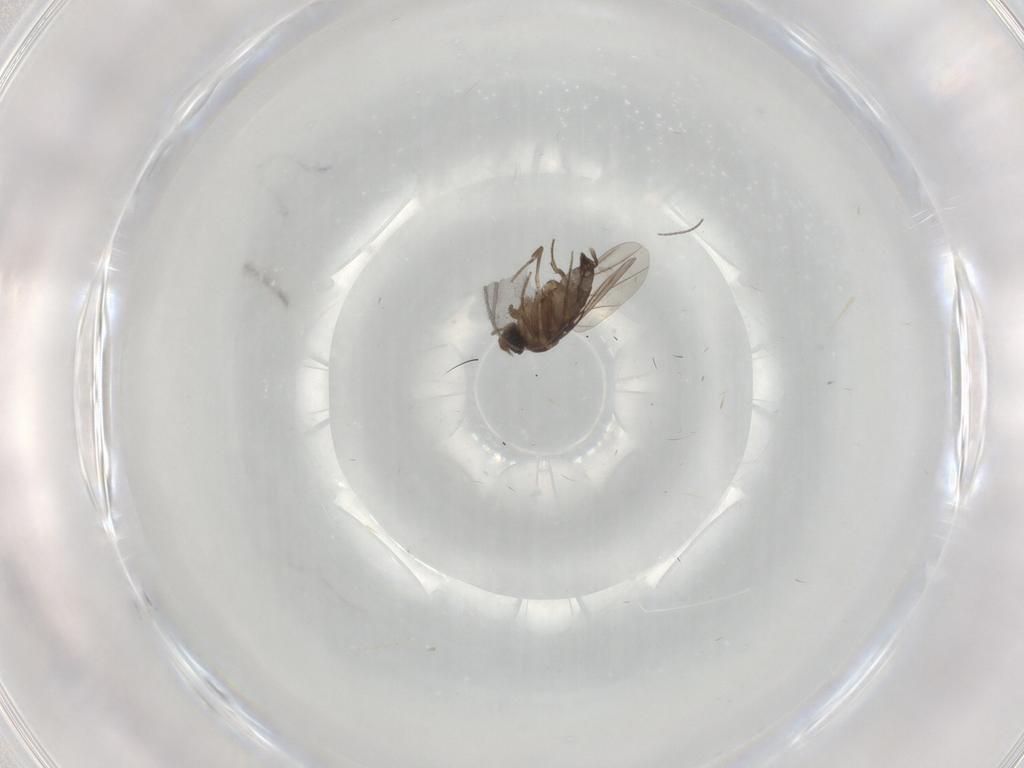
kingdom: Animalia
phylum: Arthropoda
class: Insecta
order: Diptera
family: Phoridae
